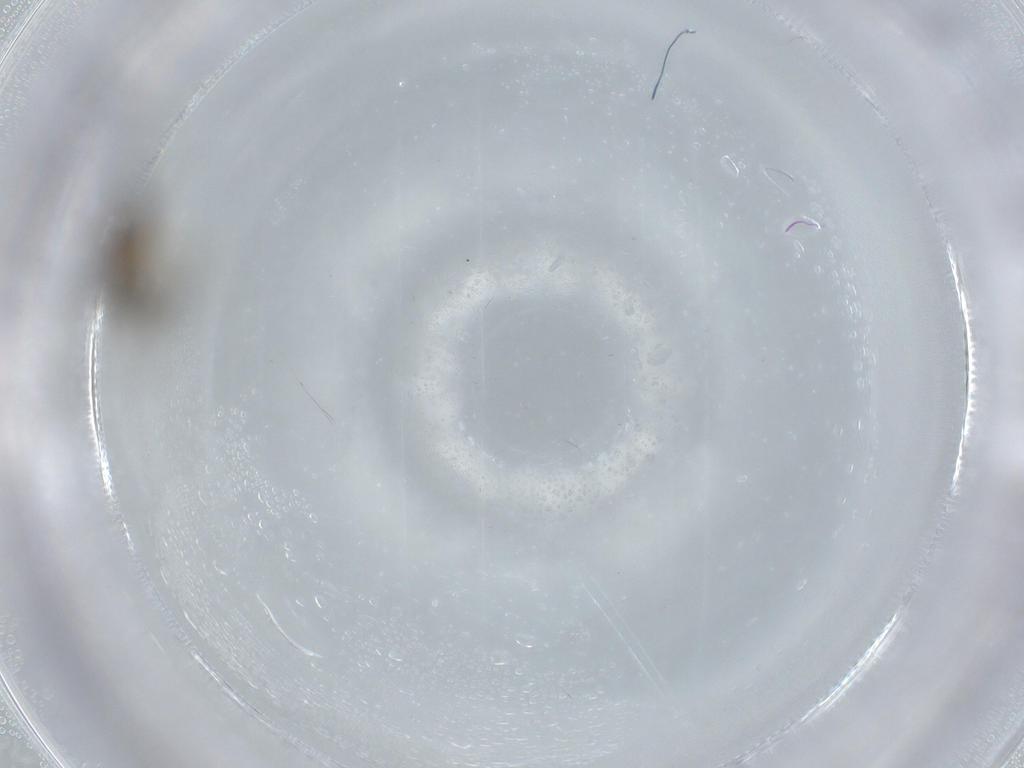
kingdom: Animalia
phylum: Arthropoda
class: Insecta
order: Diptera
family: Sciaridae
